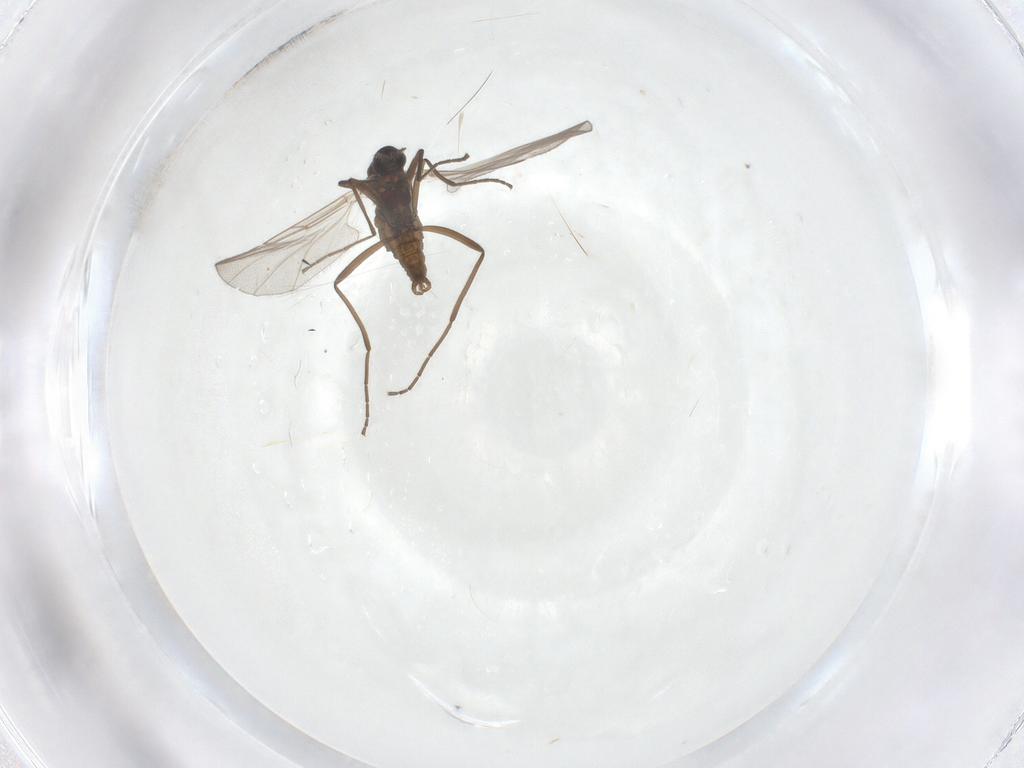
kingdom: Animalia
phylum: Arthropoda
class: Insecta
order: Diptera
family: Cecidomyiidae
